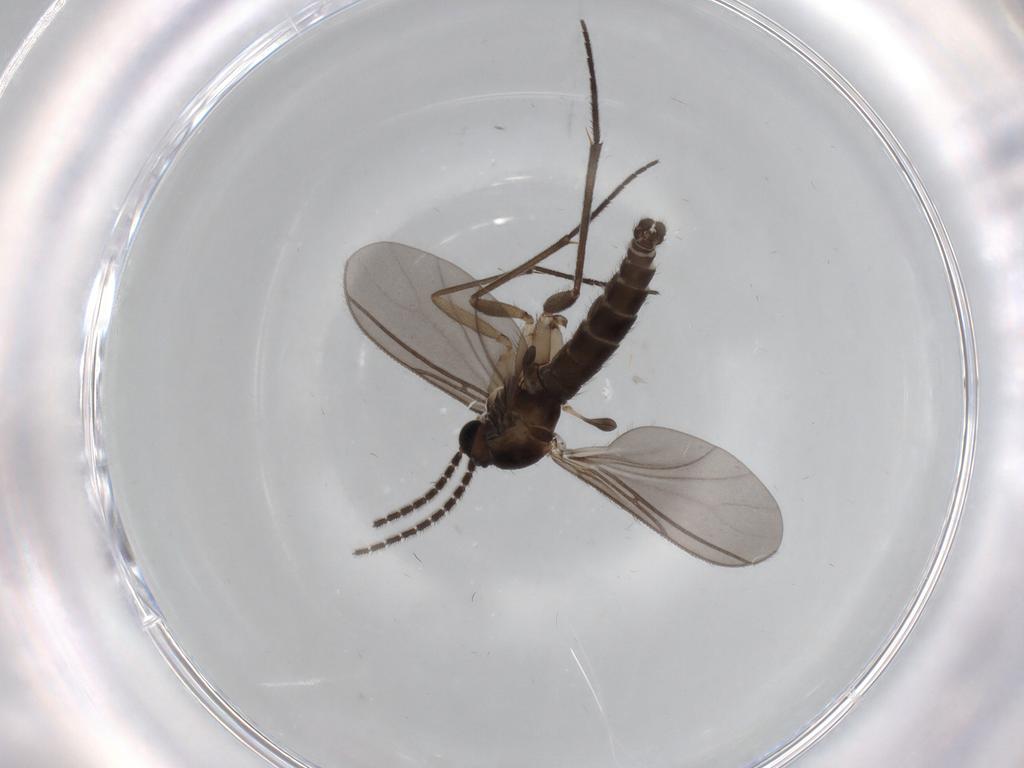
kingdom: Animalia
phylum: Arthropoda
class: Insecta
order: Diptera
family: Sciaridae
